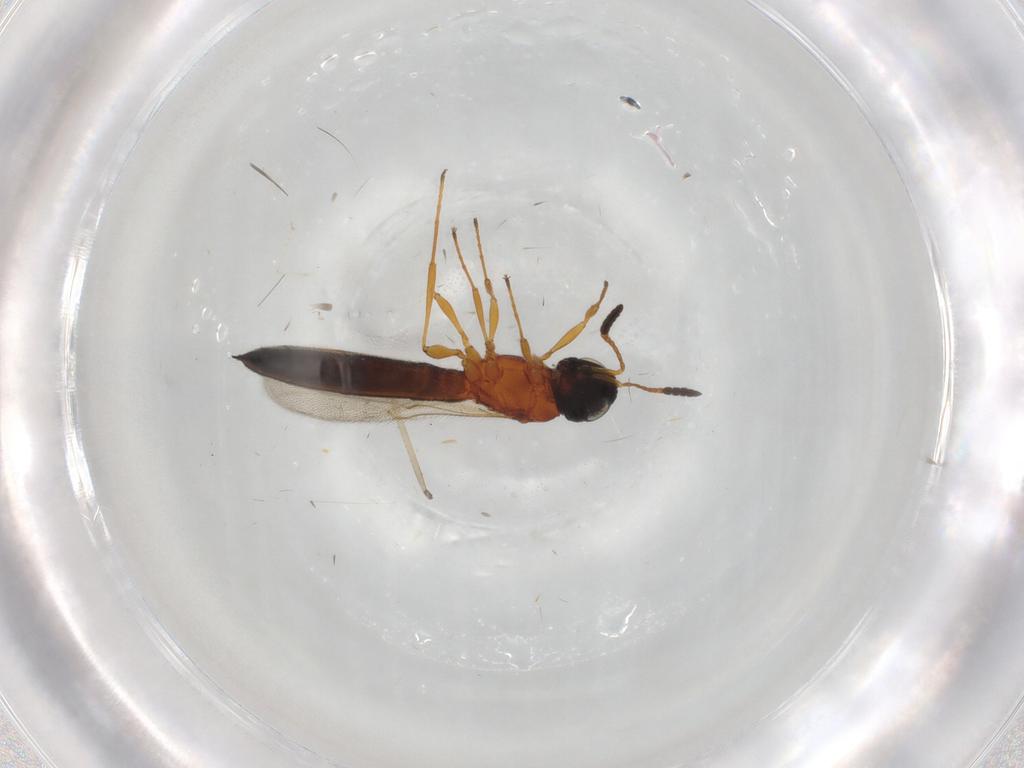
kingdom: Animalia
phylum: Arthropoda
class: Insecta
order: Hymenoptera
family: Scelionidae
